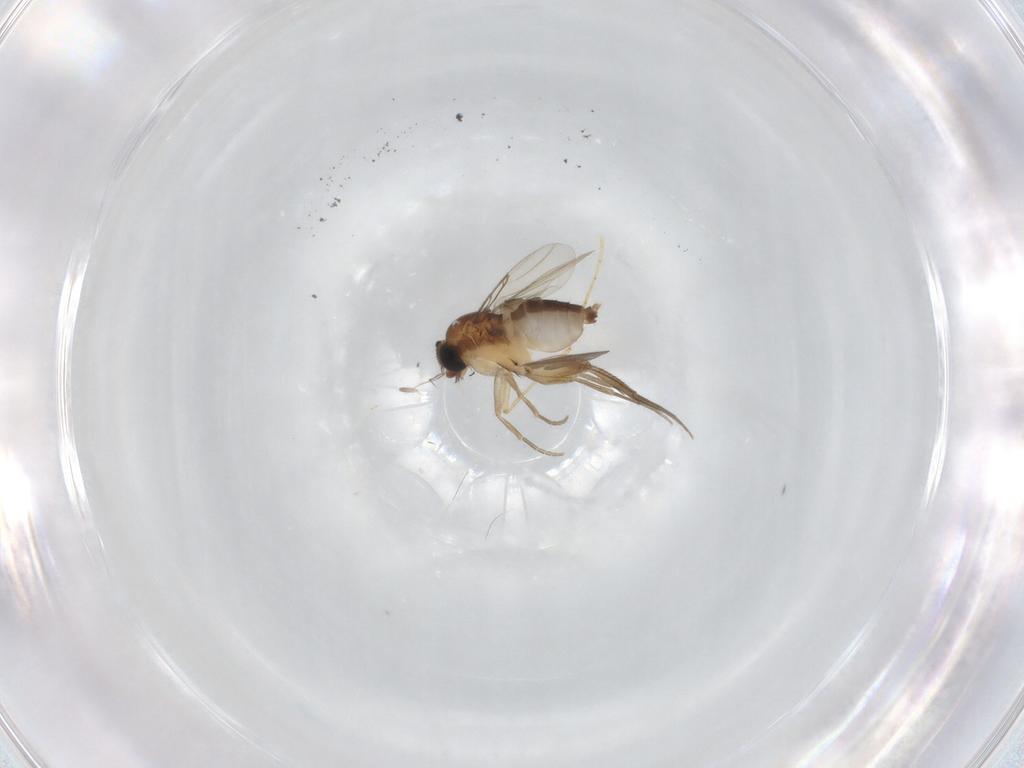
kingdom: Animalia
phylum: Arthropoda
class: Insecta
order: Diptera
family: Phoridae
